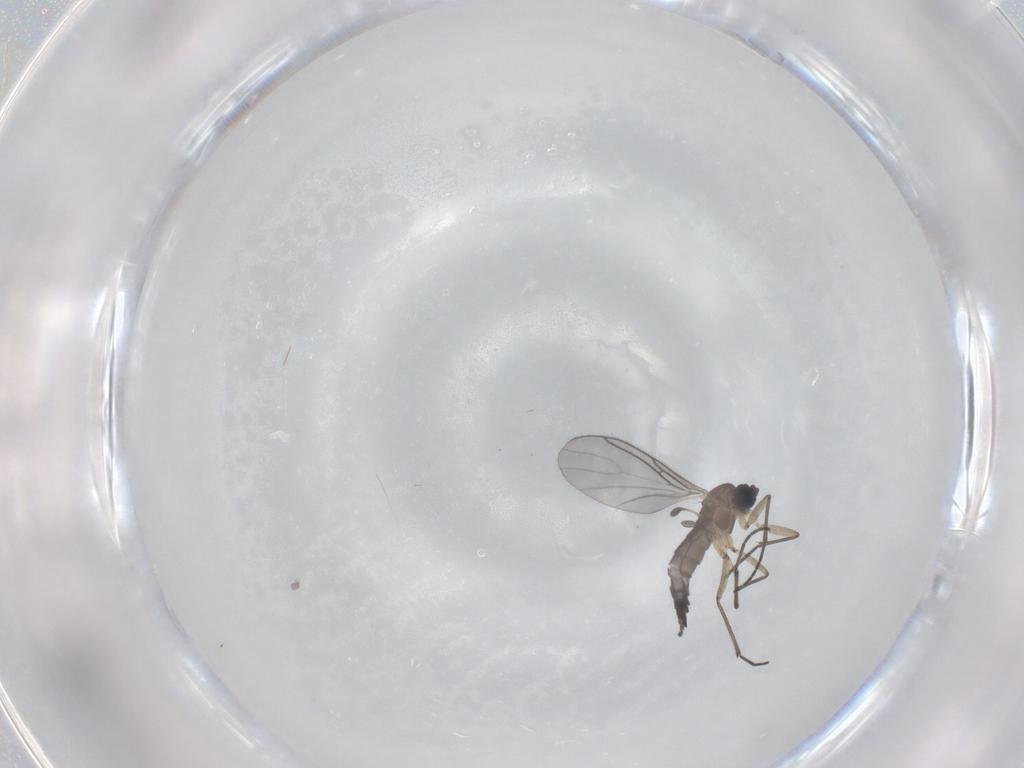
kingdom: Animalia
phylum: Arthropoda
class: Insecta
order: Diptera
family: Sciaridae
